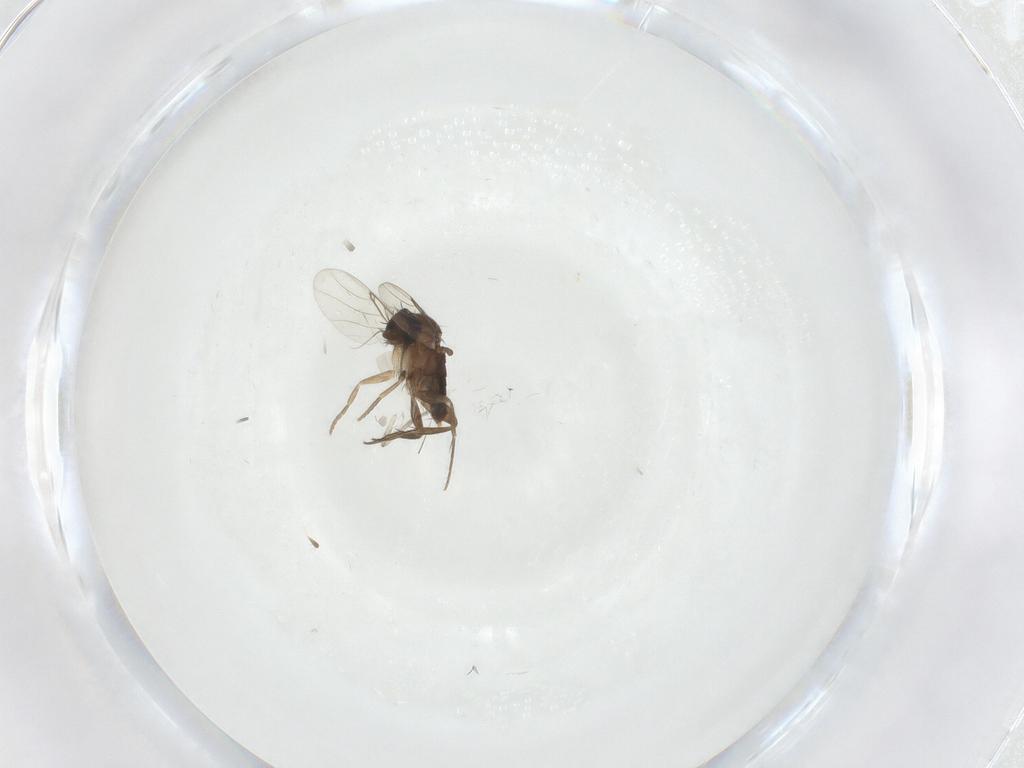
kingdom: Animalia
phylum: Arthropoda
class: Insecta
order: Diptera
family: Phoridae
